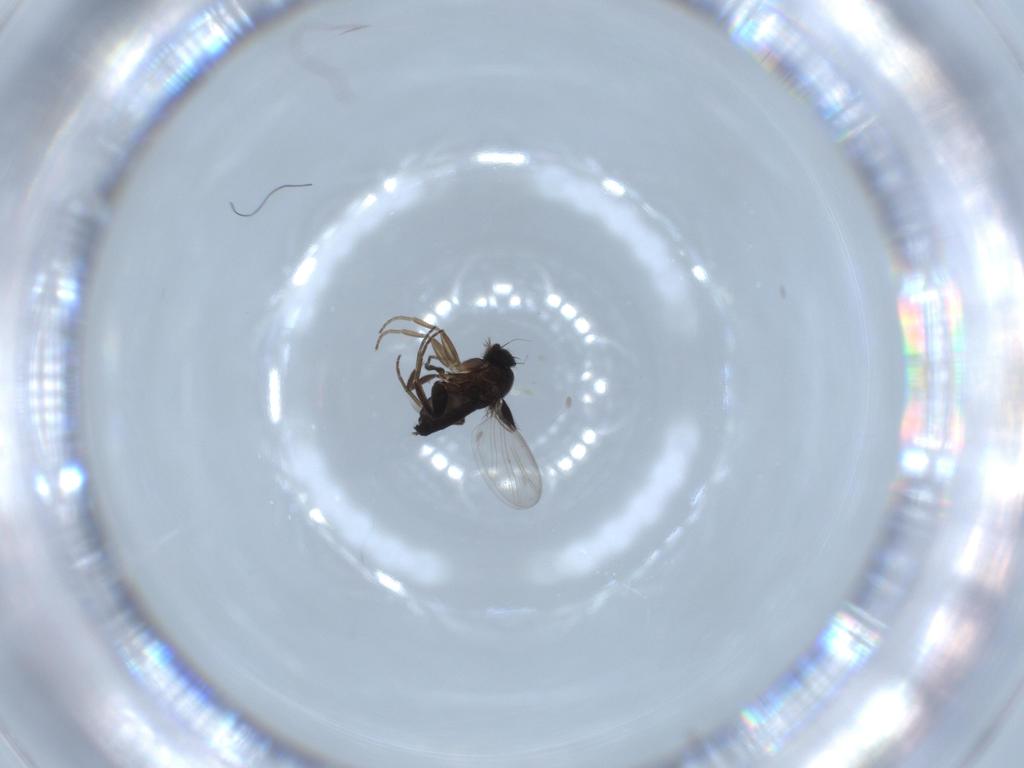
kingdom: Animalia
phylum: Arthropoda
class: Insecta
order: Diptera
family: Phoridae
